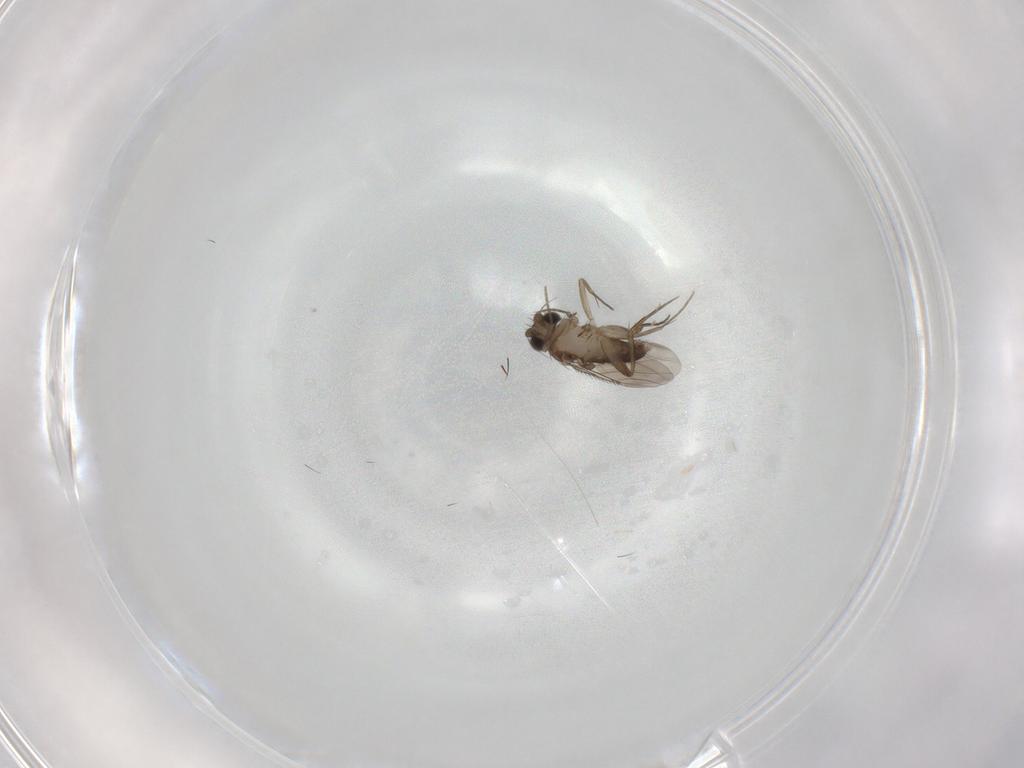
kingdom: Animalia
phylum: Arthropoda
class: Insecta
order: Diptera
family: Phoridae
